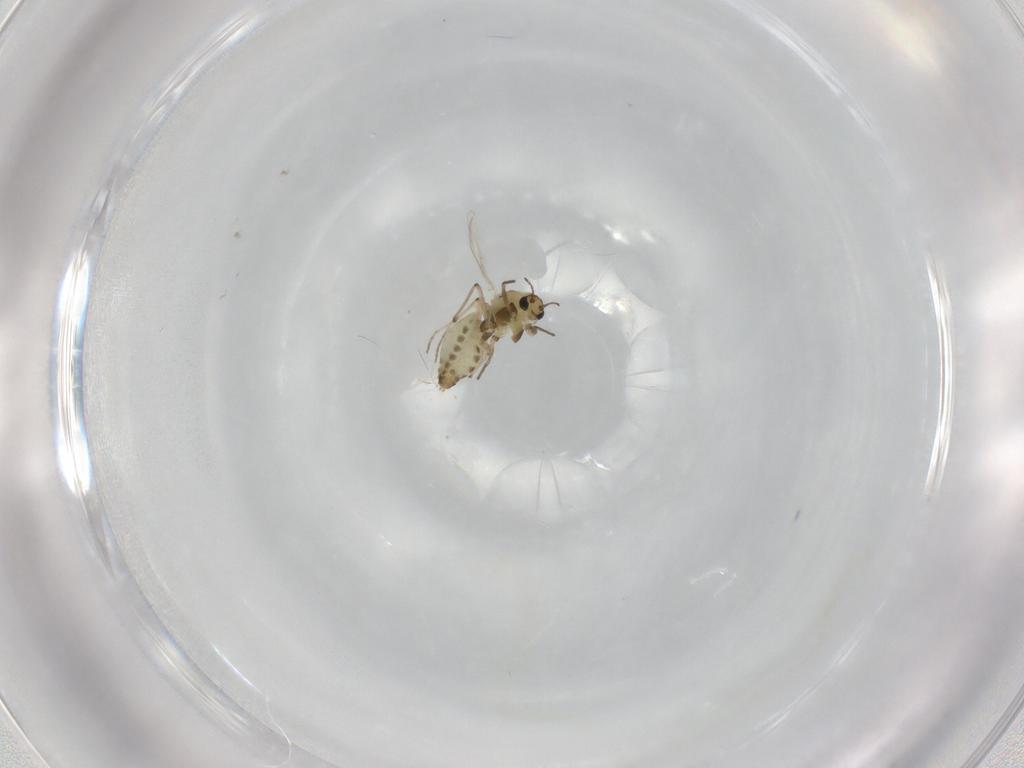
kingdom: Animalia
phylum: Arthropoda
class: Insecta
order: Diptera
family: Chironomidae
